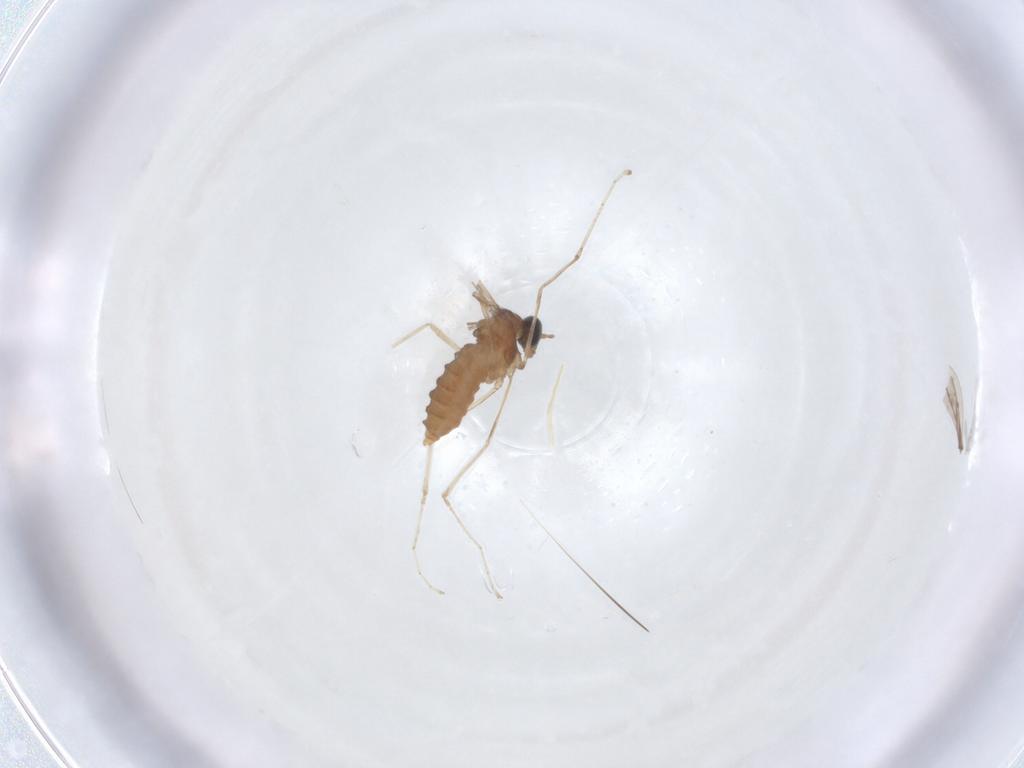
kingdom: Animalia
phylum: Arthropoda
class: Insecta
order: Diptera
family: Cecidomyiidae
